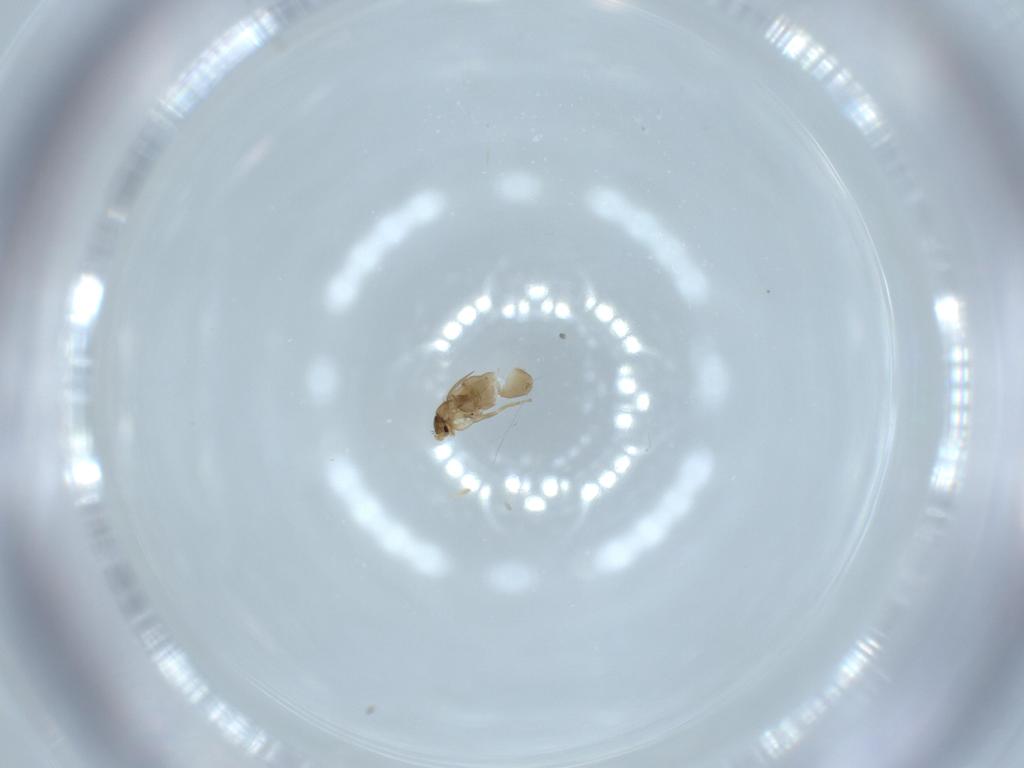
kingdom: Animalia
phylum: Arthropoda
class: Insecta
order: Diptera
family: Phoridae
